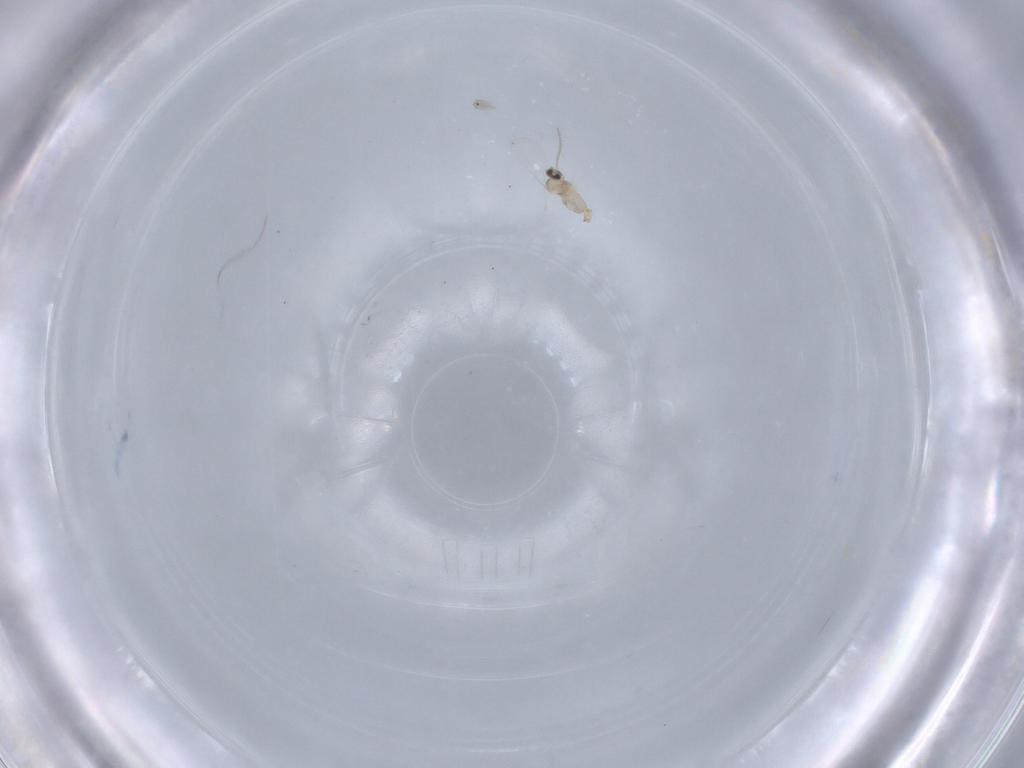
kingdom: Animalia
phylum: Arthropoda
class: Insecta
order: Diptera
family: Cecidomyiidae
